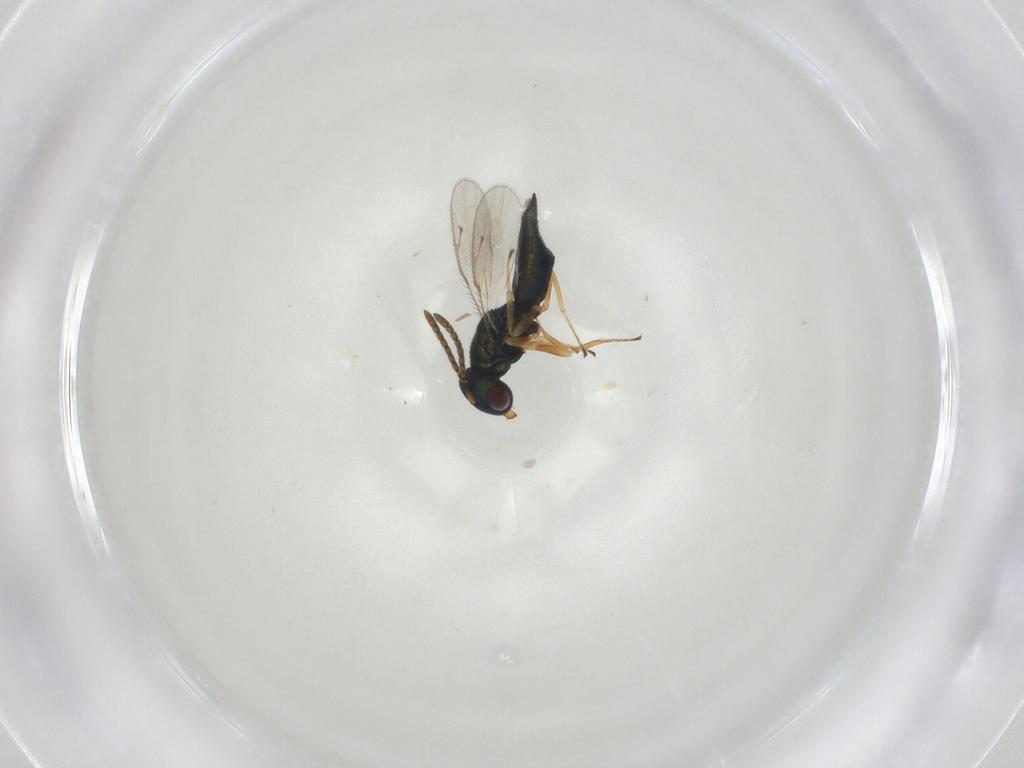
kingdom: Animalia
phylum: Arthropoda
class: Insecta
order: Hymenoptera
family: Pteromalidae
